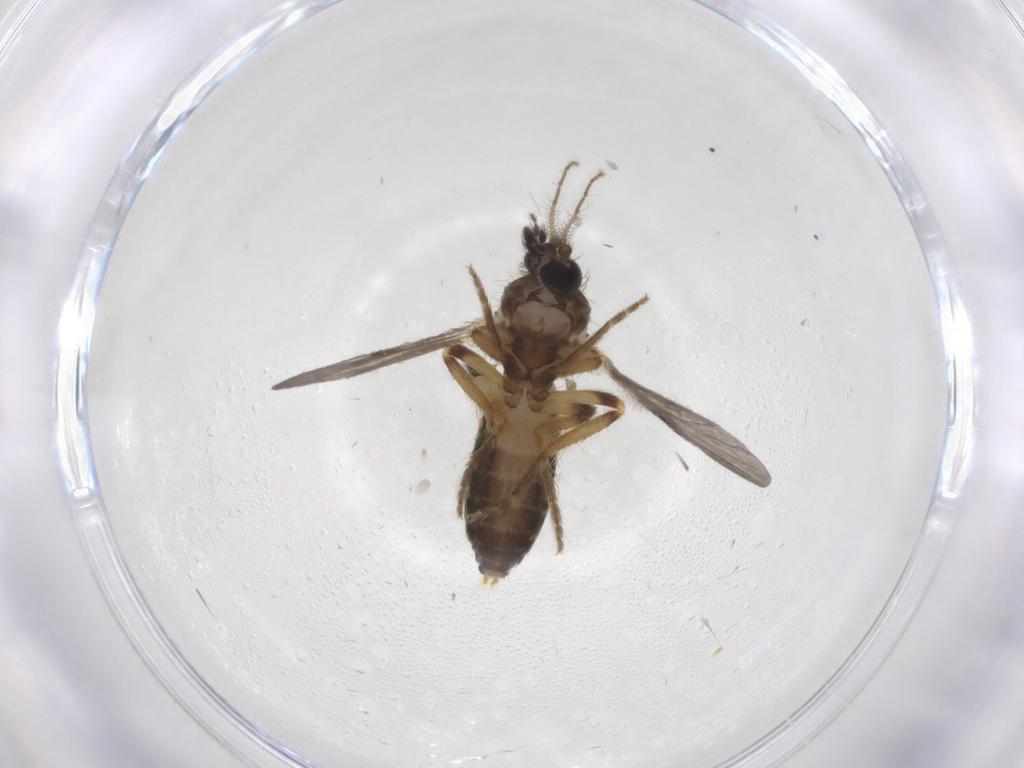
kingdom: Animalia
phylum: Arthropoda
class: Insecta
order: Diptera
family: Ceratopogonidae
